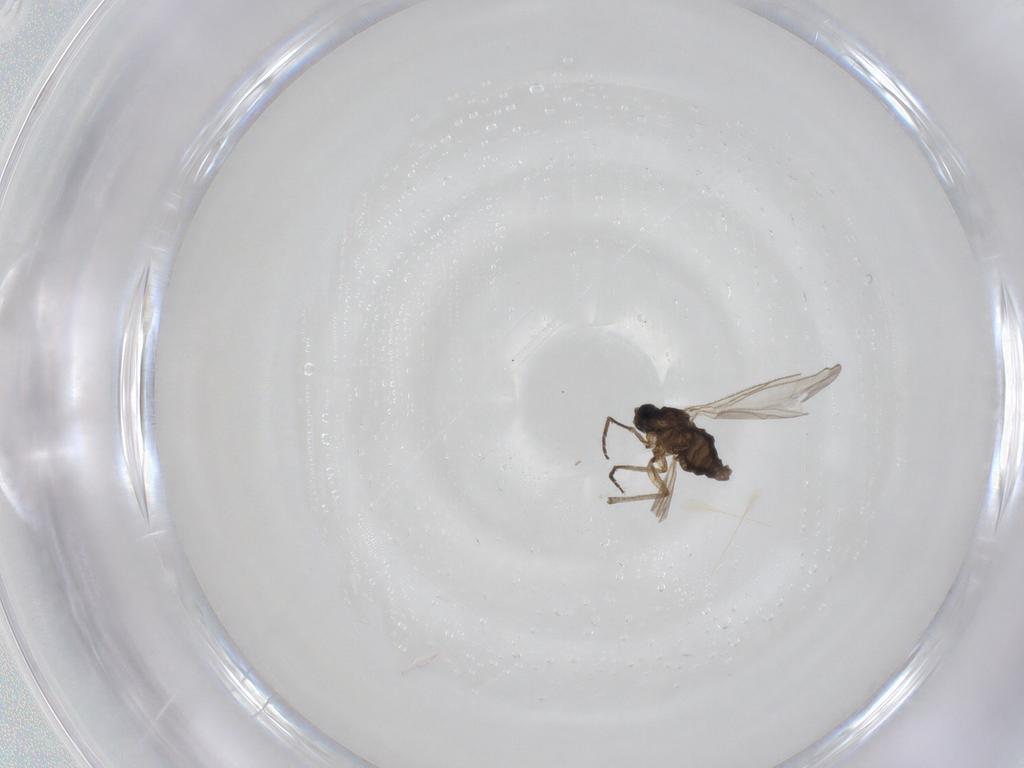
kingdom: Animalia
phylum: Arthropoda
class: Insecta
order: Diptera
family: Sciaridae
